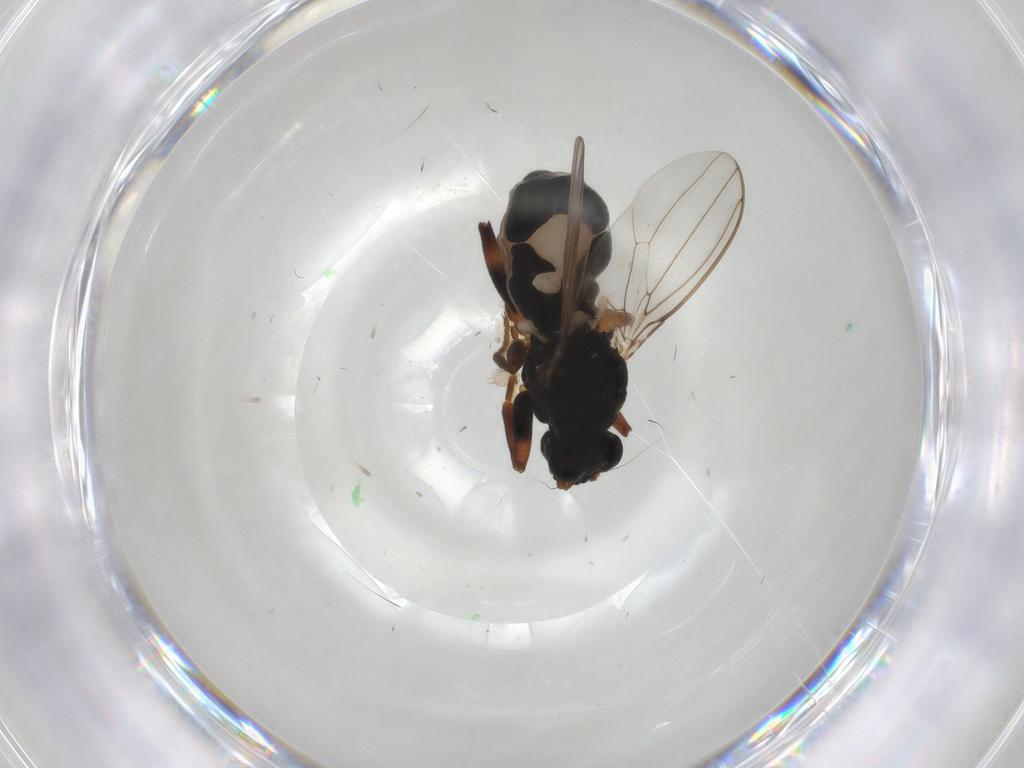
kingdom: Animalia
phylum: Arthropoda
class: Insecta
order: Diptera
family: Sphaeroceridae
